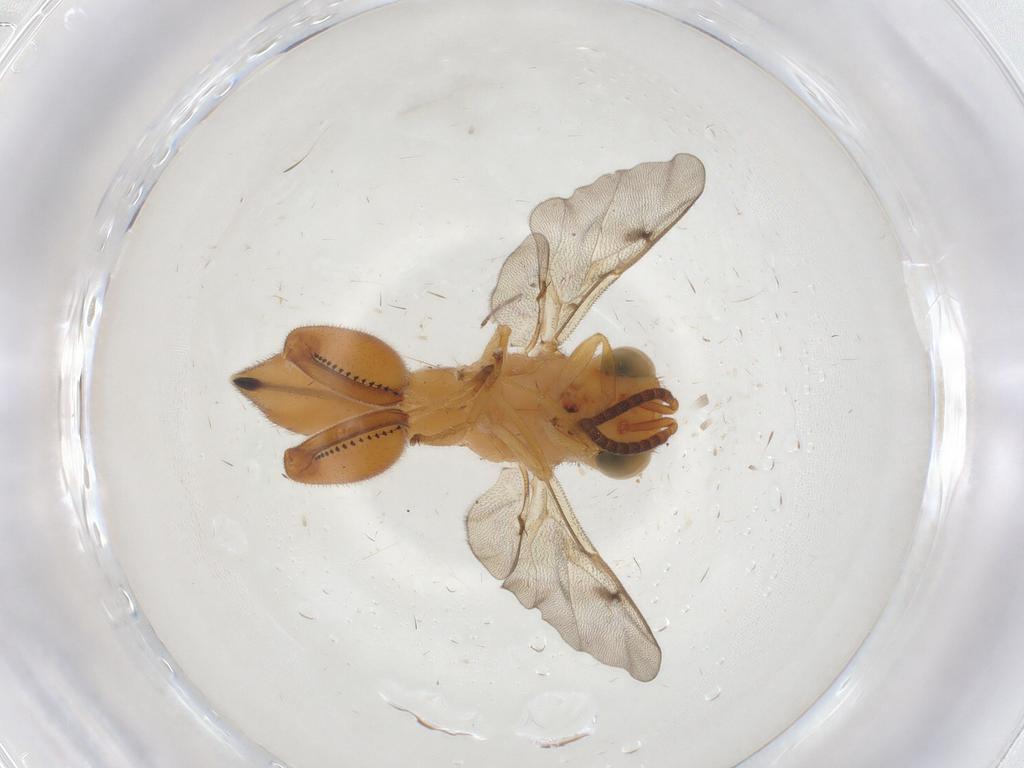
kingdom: Animalia
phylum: Arthropoda
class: Insecta
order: Hymenoptera
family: Chalcididae
